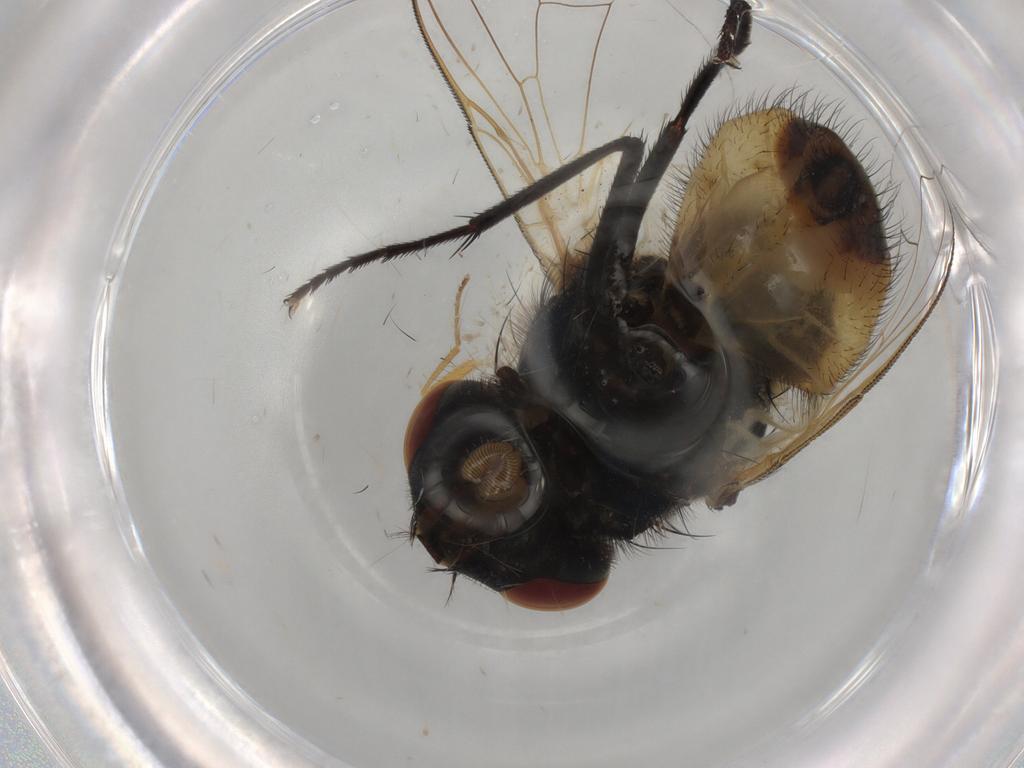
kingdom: Animalia
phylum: Arthropoda
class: Insecta
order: Diptera
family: Muscidae
